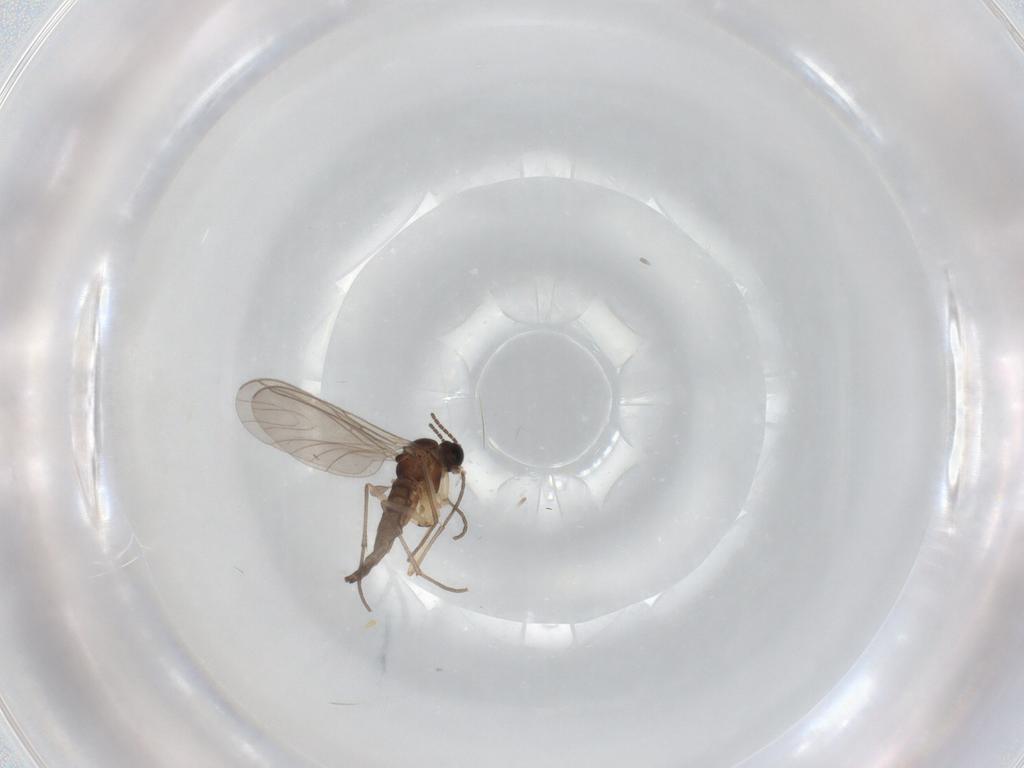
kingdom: Animalia
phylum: Arthropoda
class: Insecta
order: Diptera
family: Sciaridae
